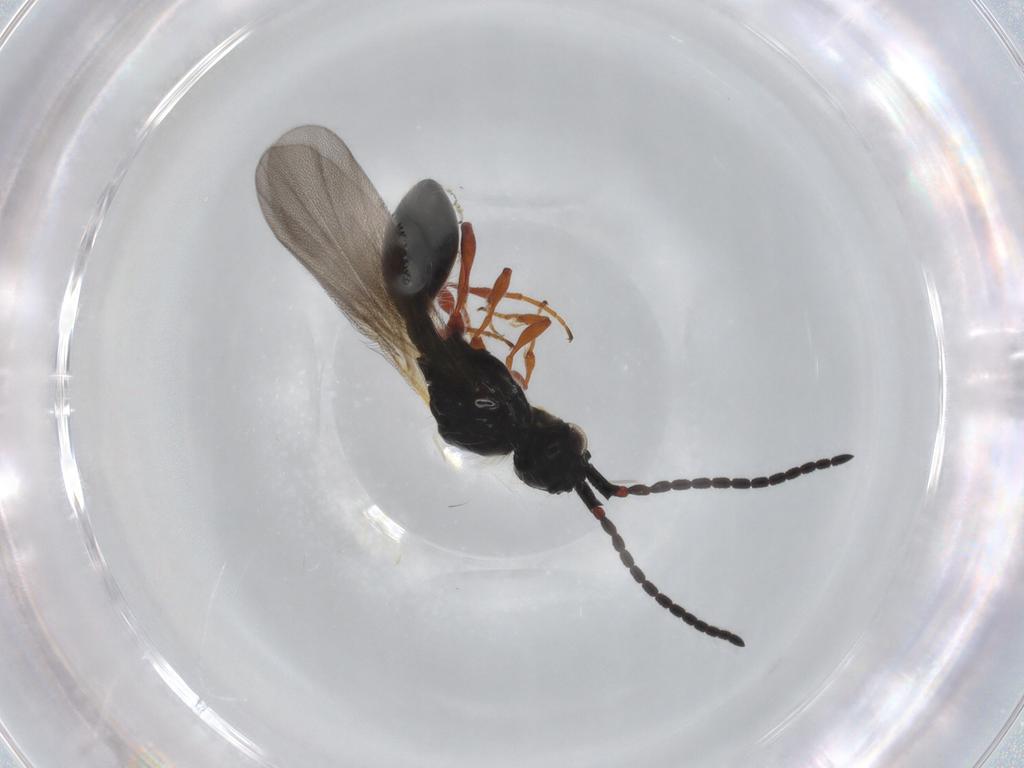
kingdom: Animalia
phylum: Arthropoda
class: Insecta
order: Hymenoptera
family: Diapriidae
